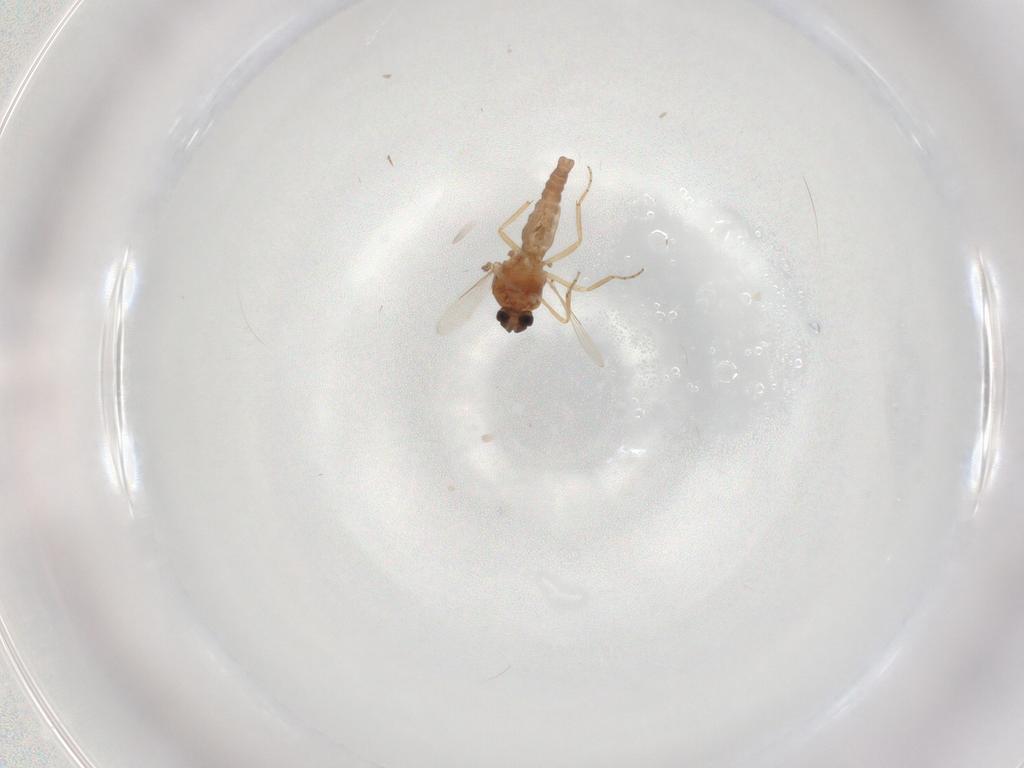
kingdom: Animalia
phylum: Arthropoda
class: Insecta
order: Diptera
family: Ceratopogonidae
